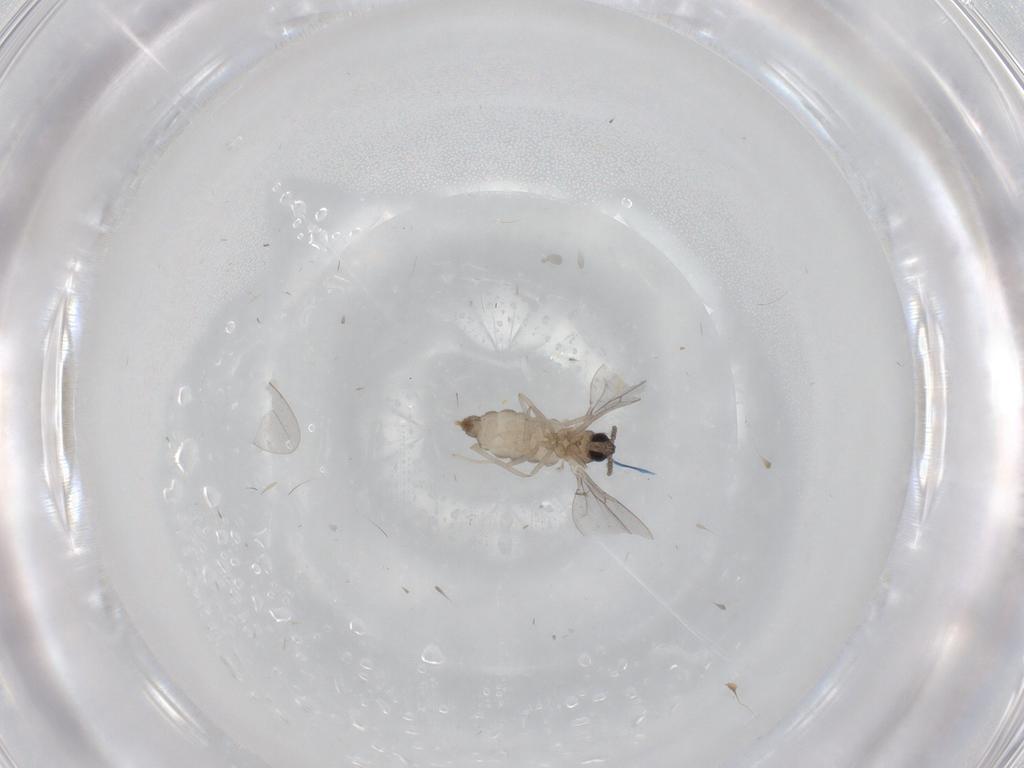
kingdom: Animalia
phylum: Arthropoda
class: Insecta
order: Diptera
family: Cecidomyiidae
